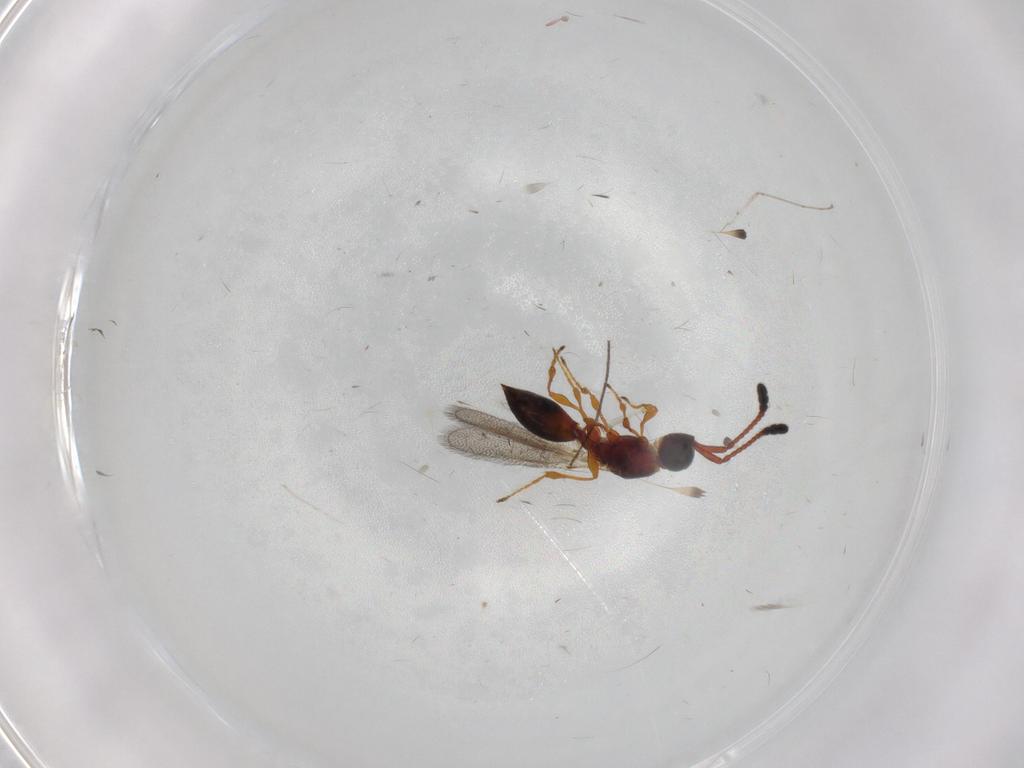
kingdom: Animalia
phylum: Arthropoda
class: Insecta
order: Hymenoptera
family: Diapriidae
